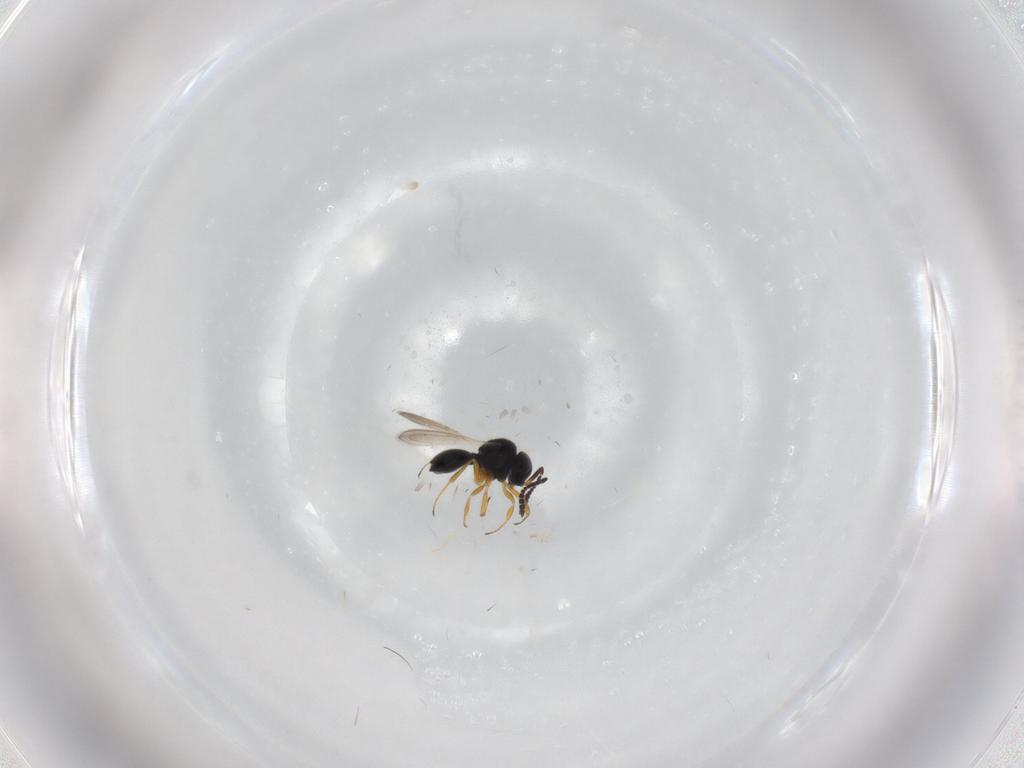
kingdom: Animalia
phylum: Arthropoda
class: Insecta
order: Hymenoptera
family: Scelionidae
